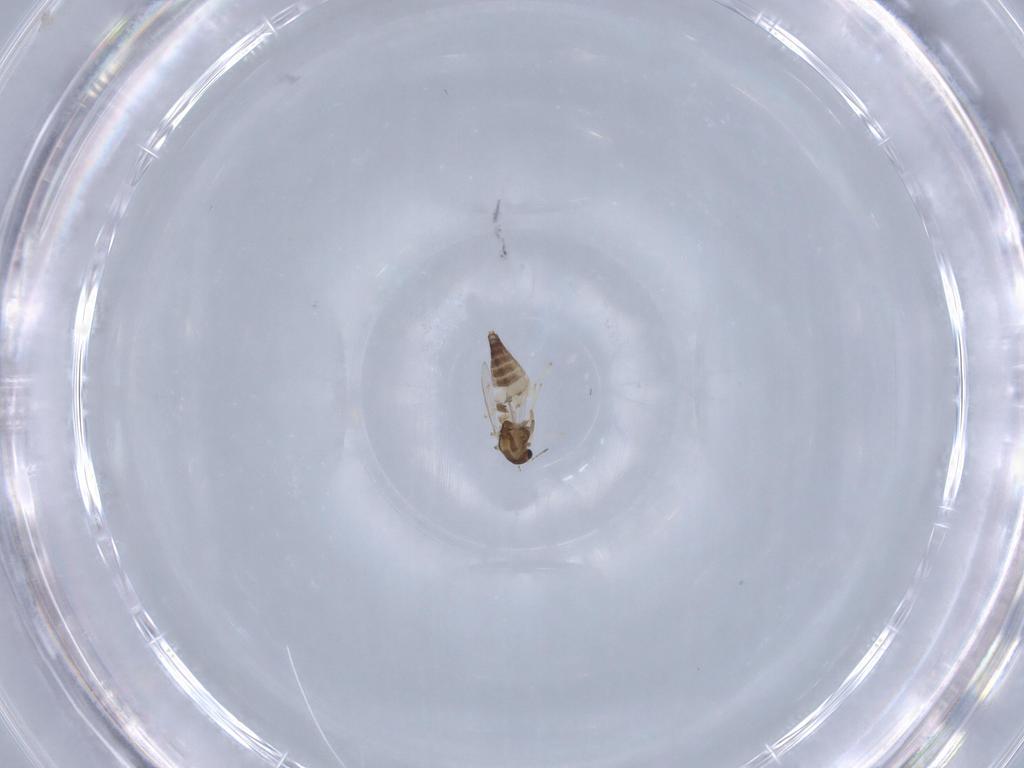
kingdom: Animalia
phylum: Arthropoda
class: Insecta
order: Diptera
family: Chironomidae
